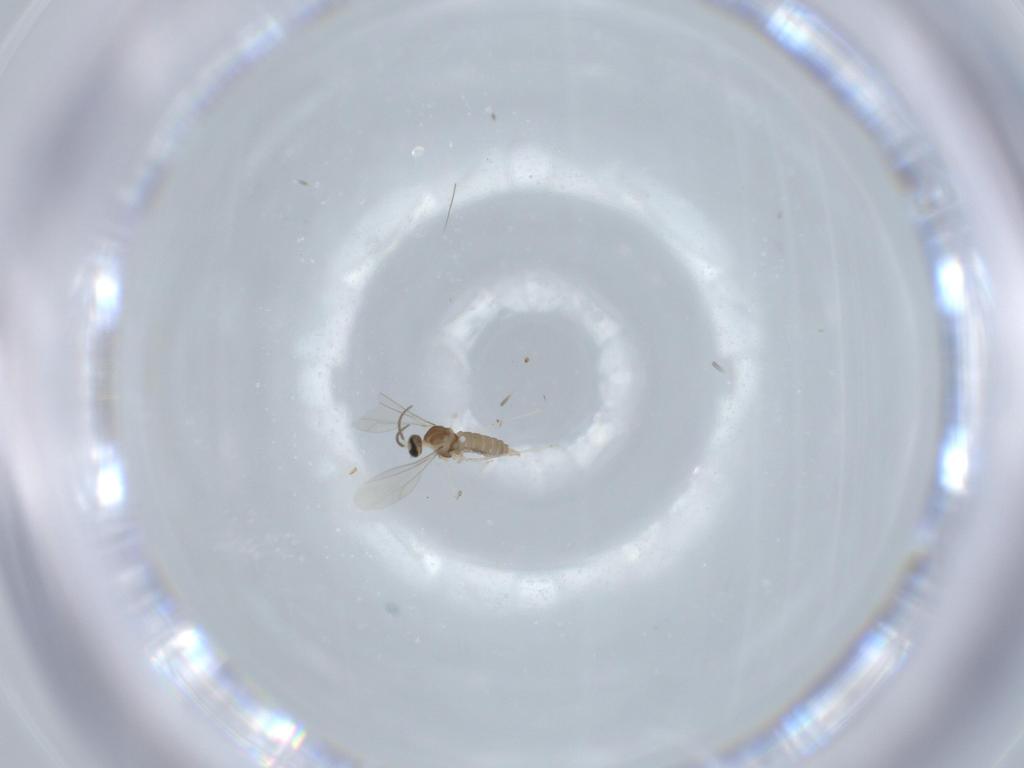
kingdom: Animalia
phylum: Arthropoda
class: Insecta
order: Diptera
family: Cecidomyiidae
